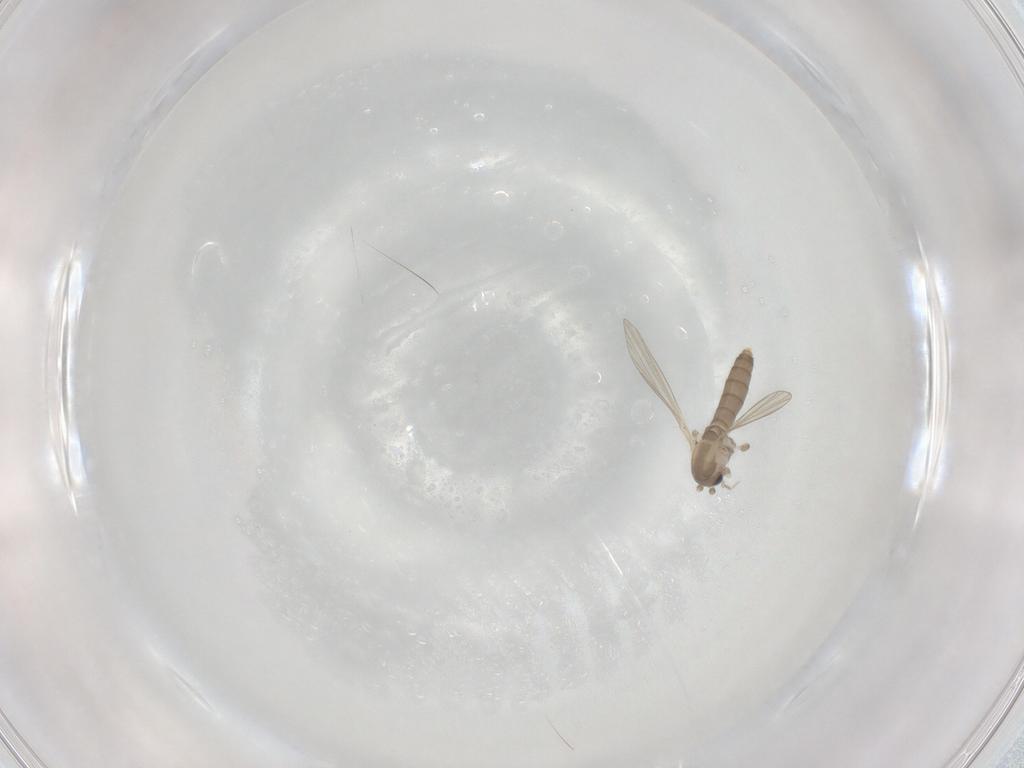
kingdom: Animalia
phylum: Arthropoda
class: Insecta
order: Diptera
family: Psychodidae
